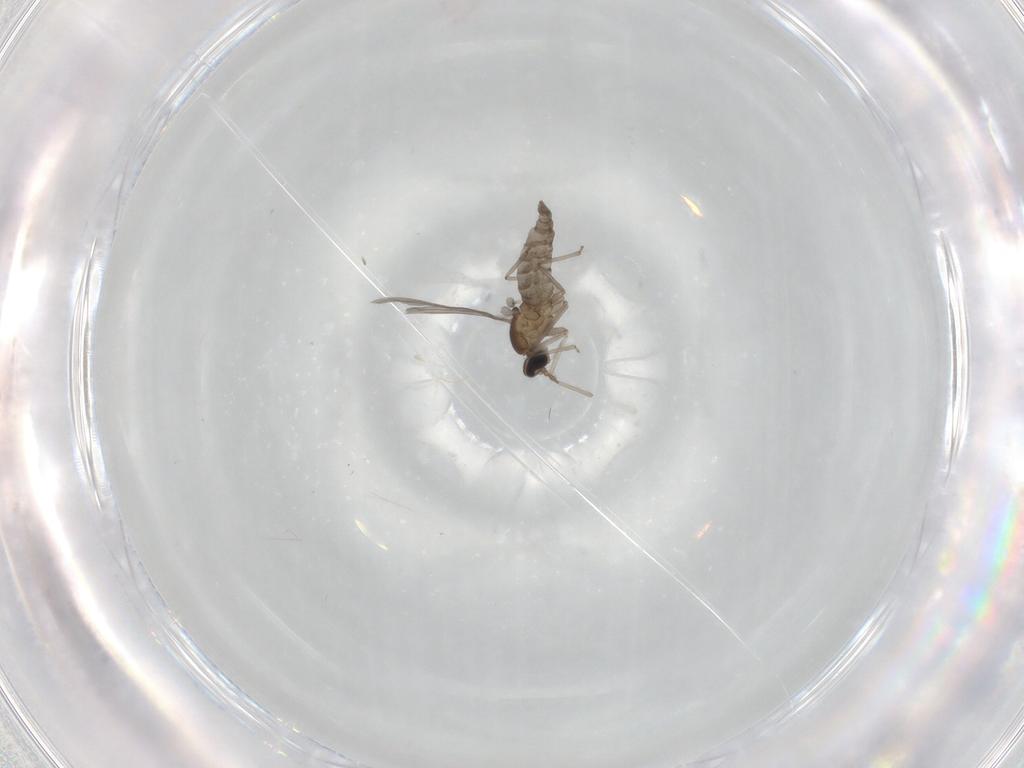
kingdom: Animalia
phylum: Arthropoda
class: Insecta
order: Diptera
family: Cecidomyiidae
